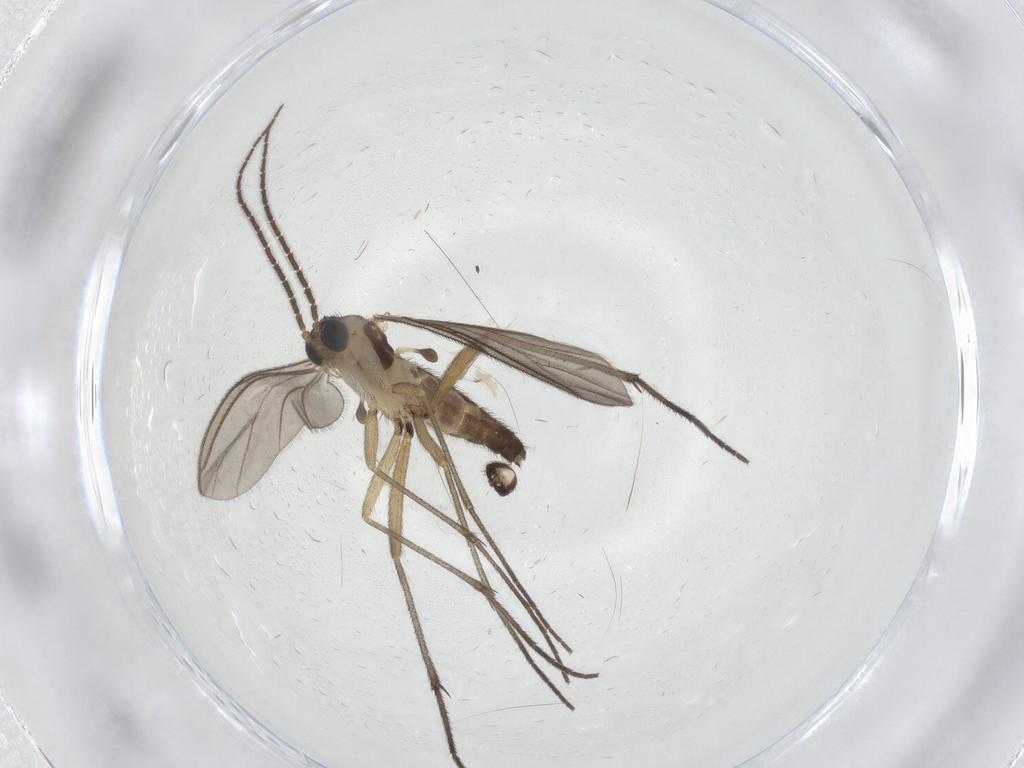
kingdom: Animalia
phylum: Arthropoda
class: Insecta
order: Diptera
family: Sciaridae
